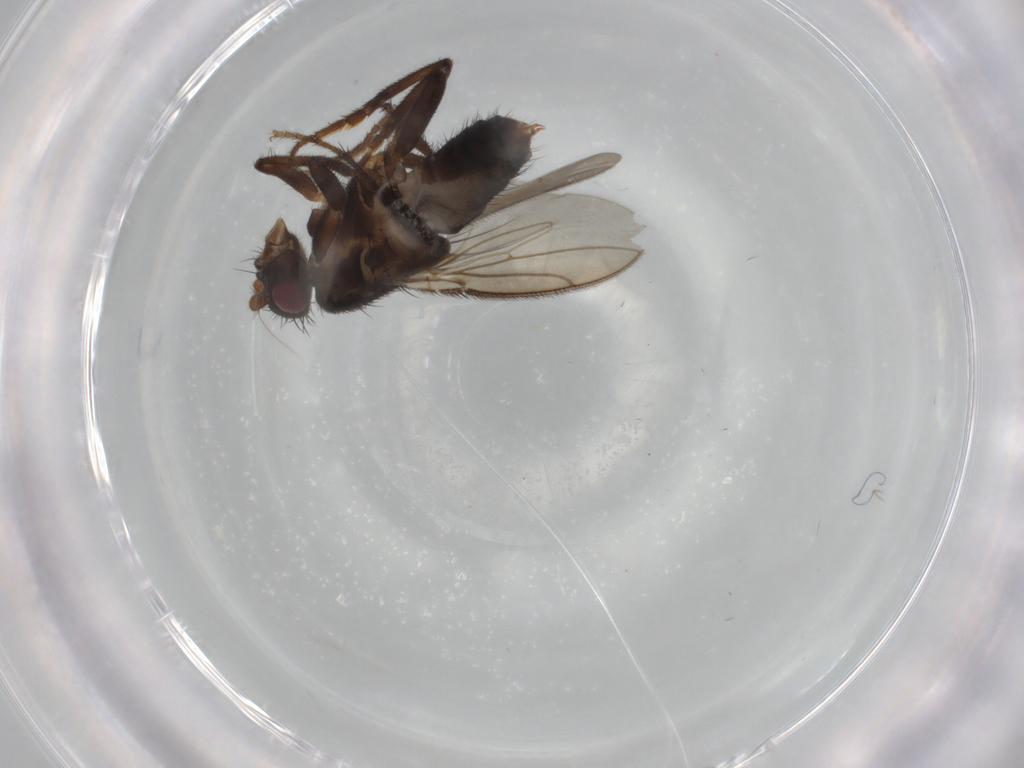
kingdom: Animalia
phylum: Arthropoda
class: Insecta
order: Diptera
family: Sphaeroceridae
